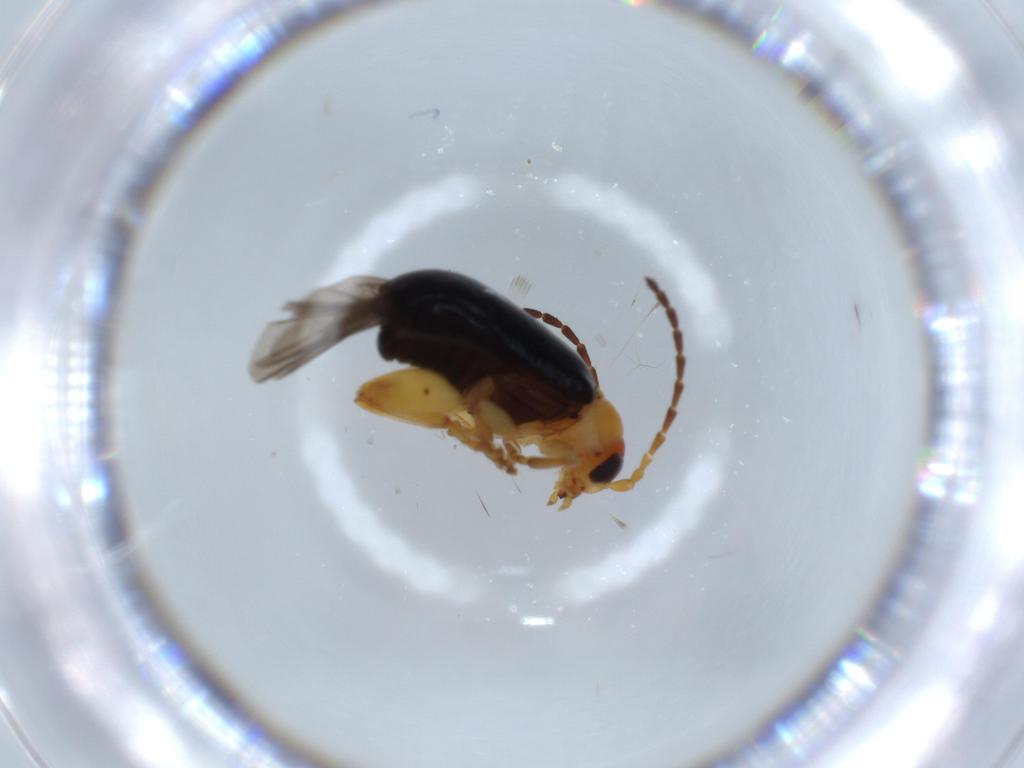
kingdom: Animalia
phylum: Arthropoda
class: Insecta
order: Coleoptera
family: Chrysomelidae
